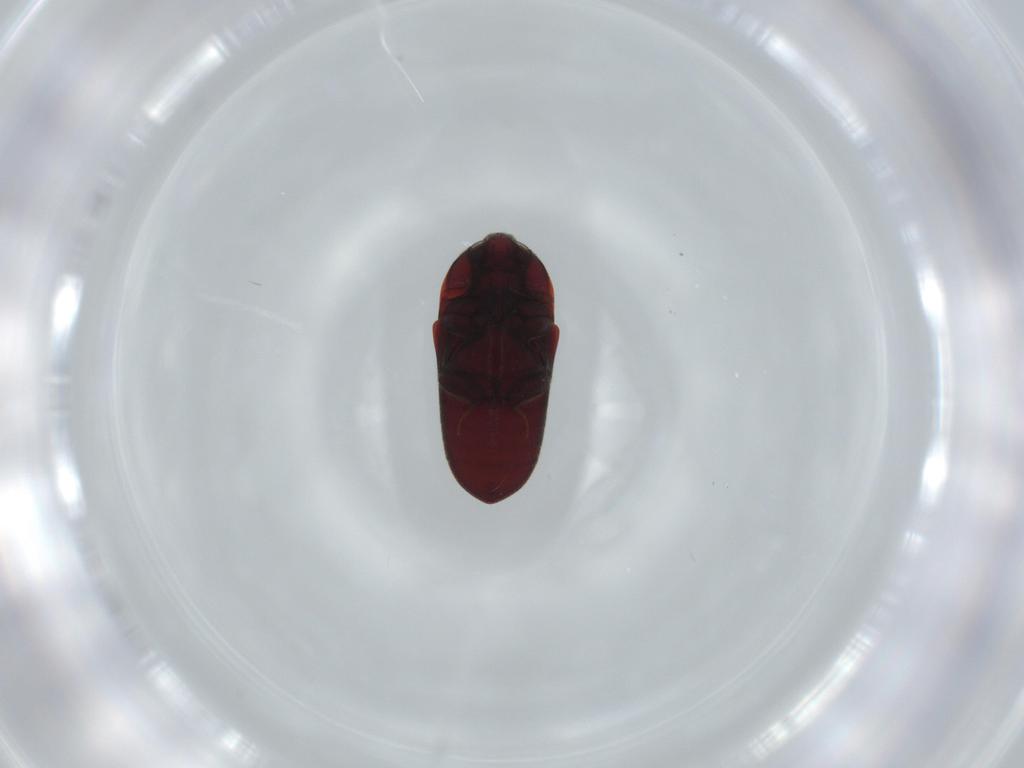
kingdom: Animalia
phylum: Arthropoda
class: Insecta
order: Coleoptera
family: Throscidae
